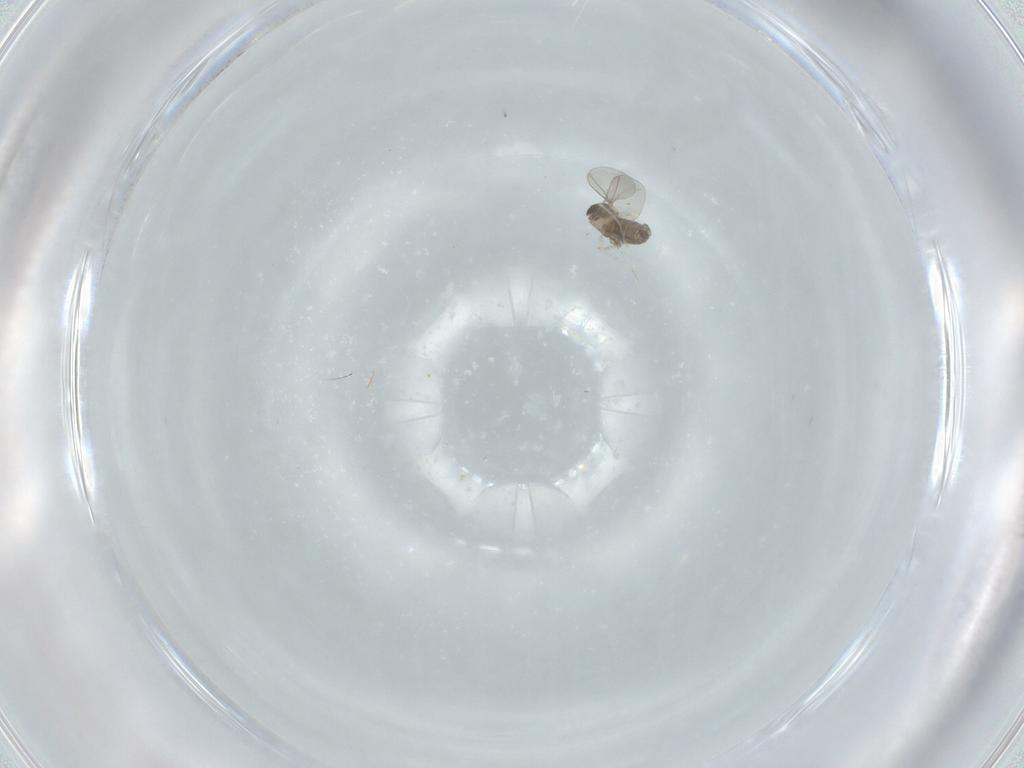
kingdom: Animalia
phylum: Arthropoda
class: Insecta
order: Diptera
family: Cecidomyiidae
